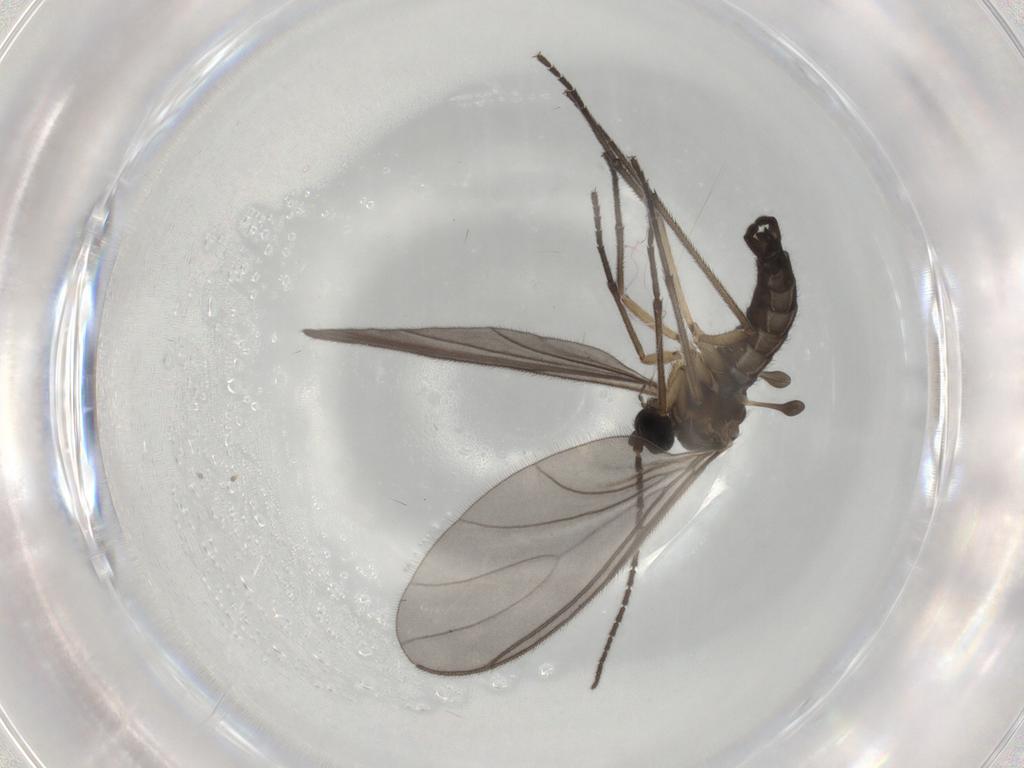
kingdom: Animalia
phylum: Arthropoda
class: Insecta
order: Diptera
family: Sciaridae
